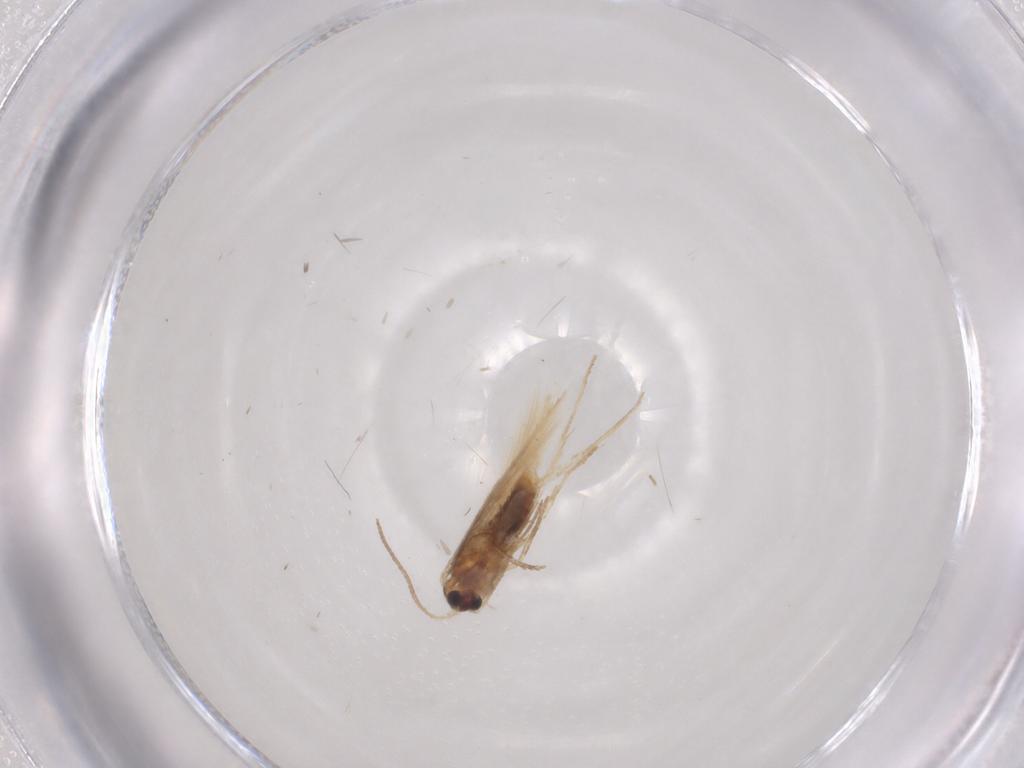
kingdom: Animalia
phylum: Arthropoda
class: Insecta
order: Lepidoptera
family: Nepticulidae
